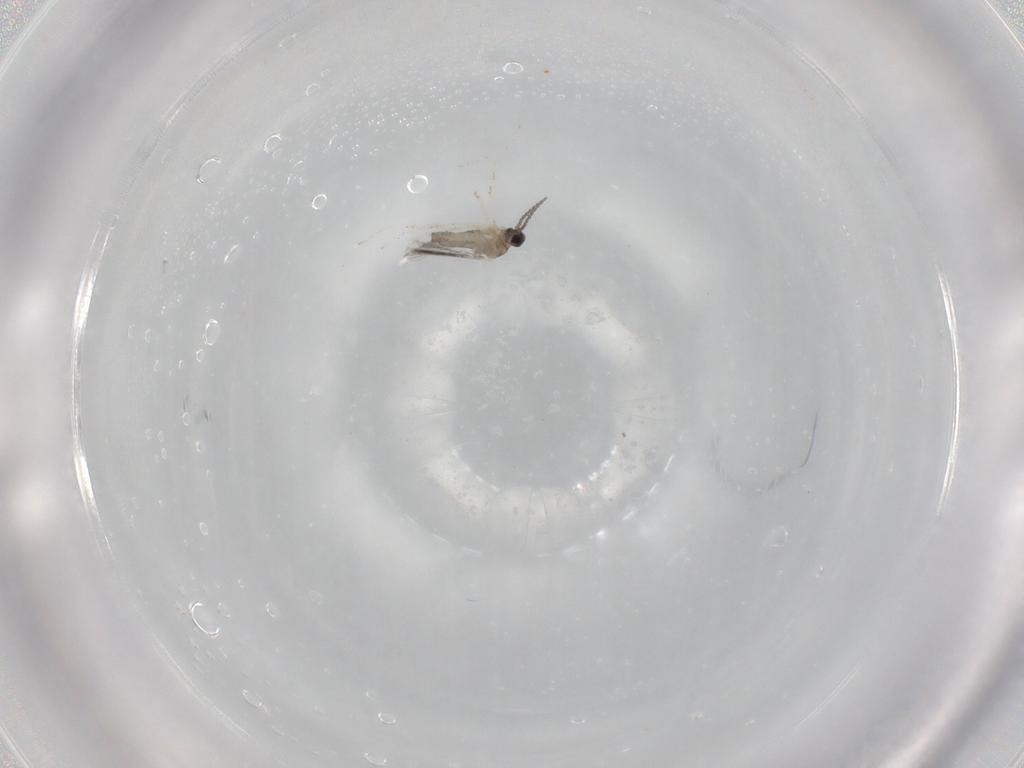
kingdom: Animalia
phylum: Arthropoda
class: Insecta
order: Diptera
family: Cecidomyiidae
